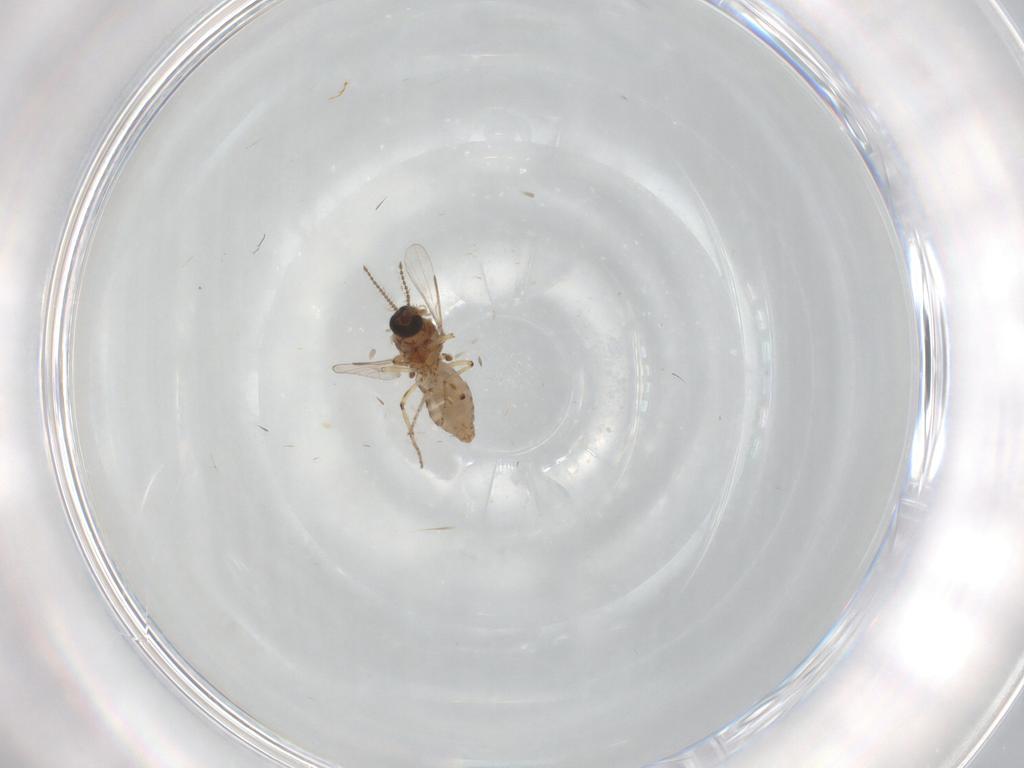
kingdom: Animalia
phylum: Arthropoda
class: Insecta
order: Diptera
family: Ceratopogonidae
